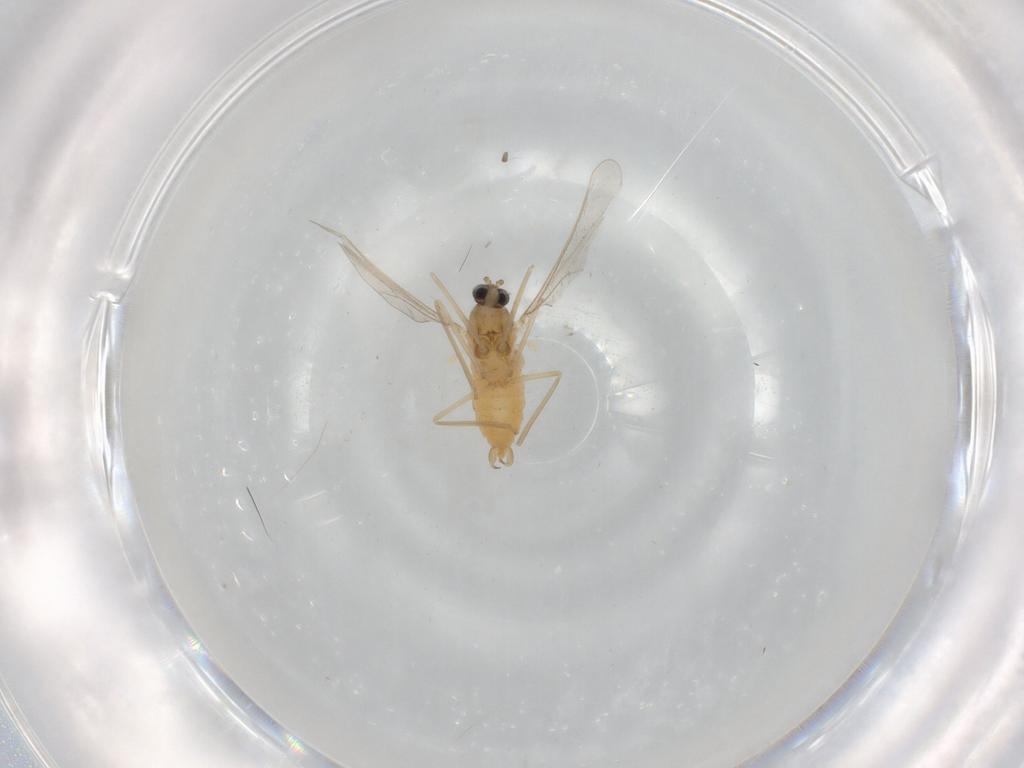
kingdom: Animalia
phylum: Arthropoda
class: Insecta
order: Diptera
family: Cecidomyiidae
